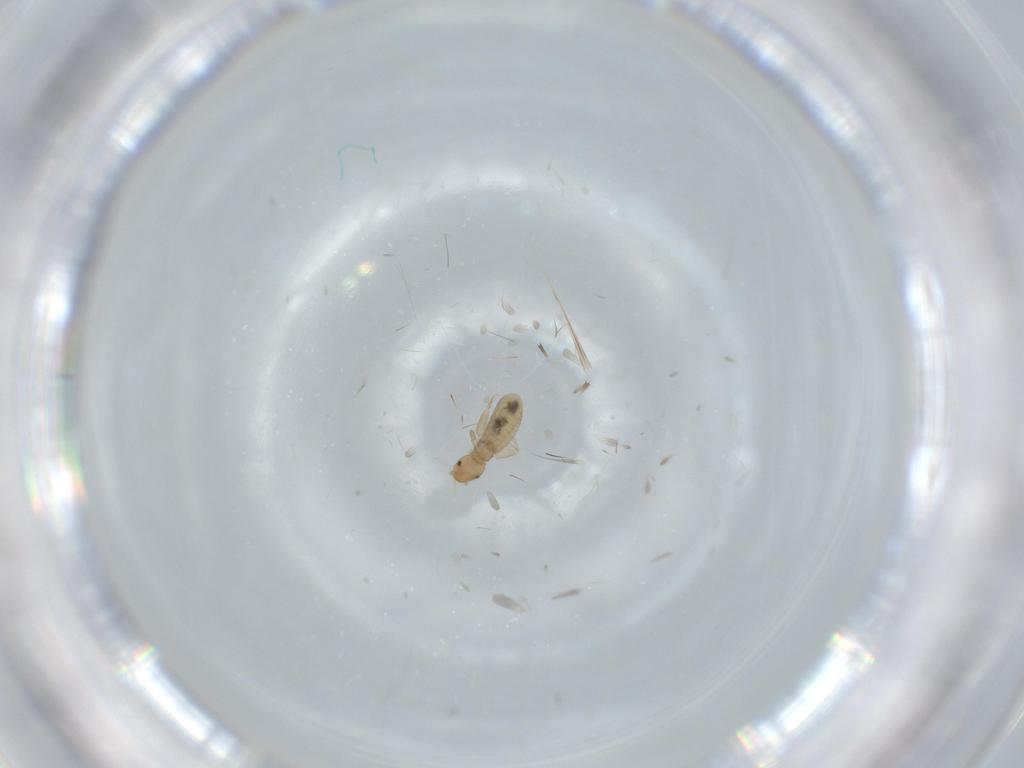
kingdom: Animalia
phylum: Arthropoda
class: Insecta
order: Psocodea
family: Liposcelididae
